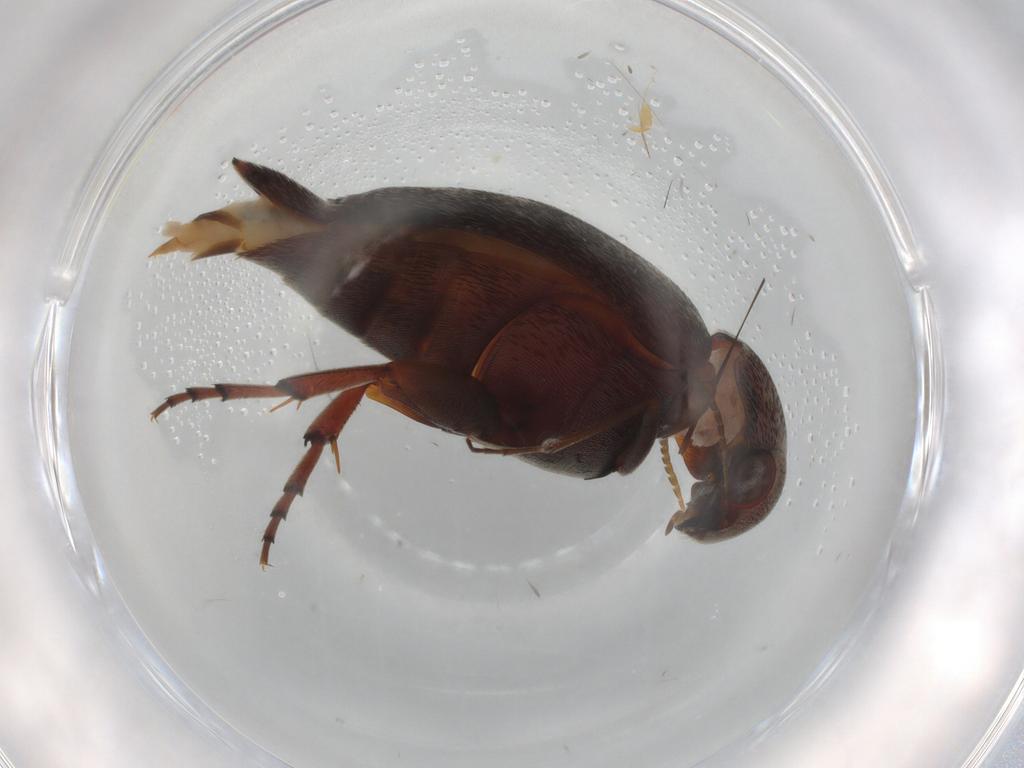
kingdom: Animalia
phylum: Arthropoda
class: Insecta
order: Coleoptera
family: Mordellidae
